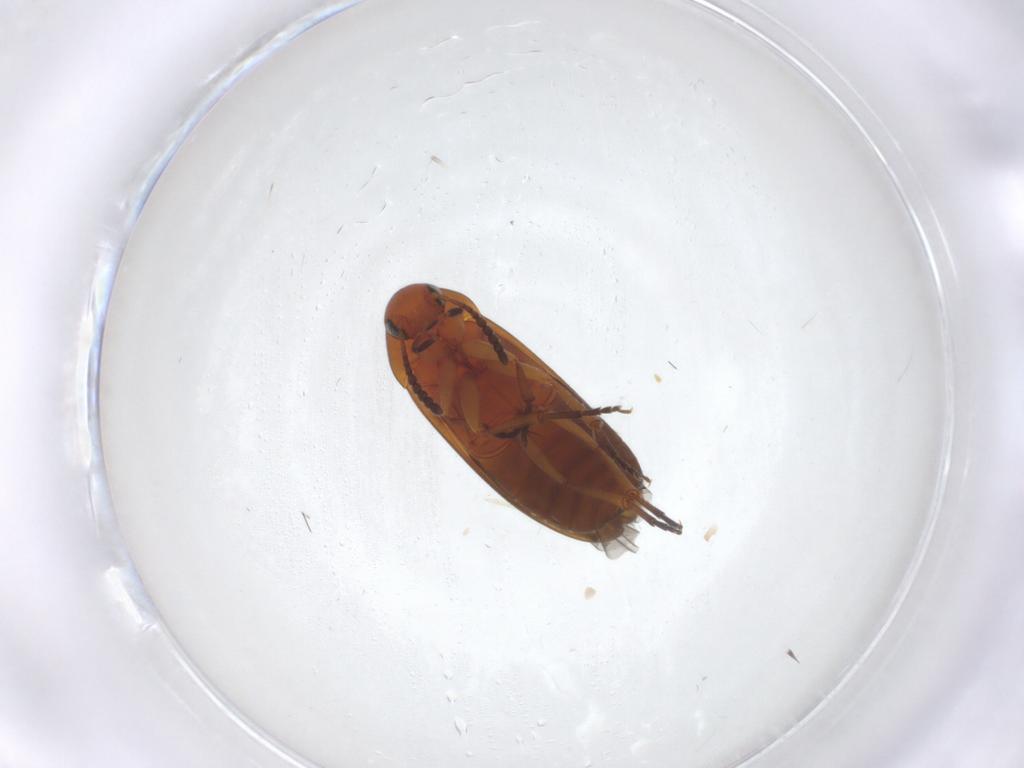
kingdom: Animalia
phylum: Arthropoda
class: Insecta
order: Coleoptera
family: Scraptiidae
